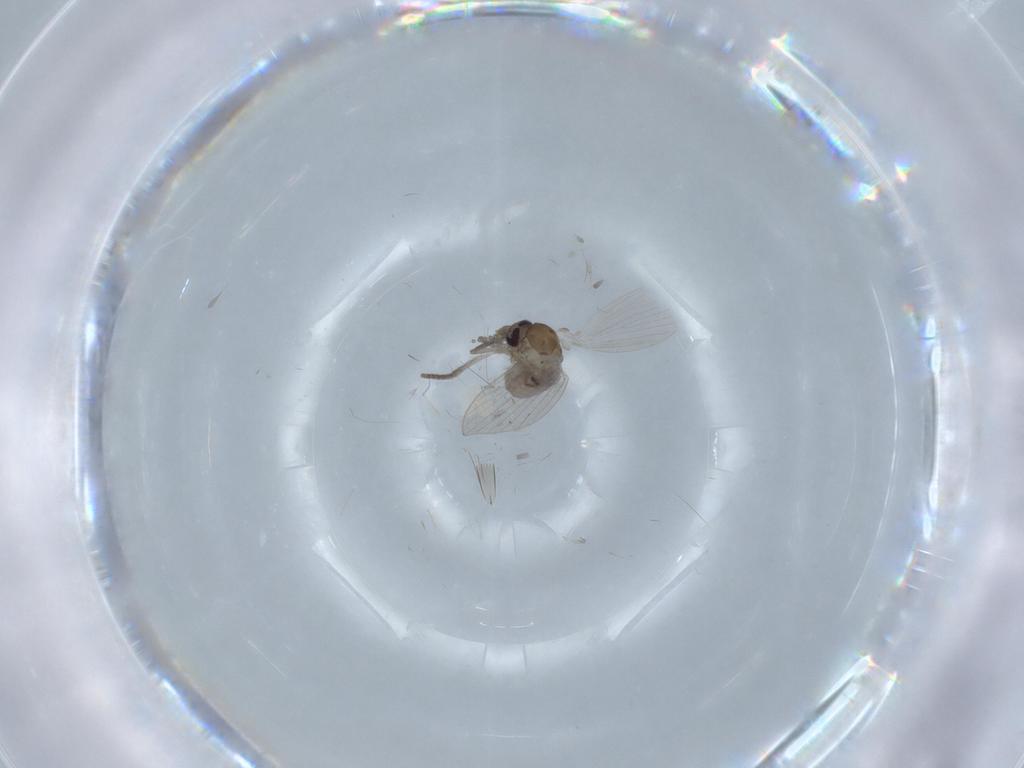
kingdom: Animalia
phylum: Arthropoda
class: Insecta
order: Diptera
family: Psychodidae
